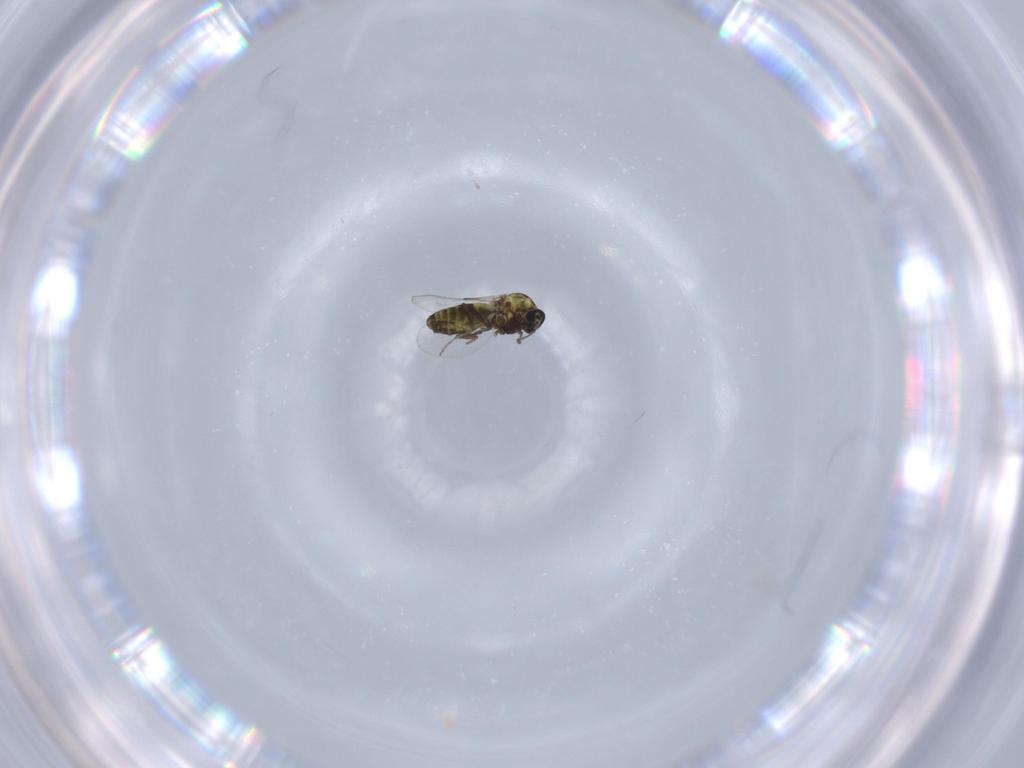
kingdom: Animalia
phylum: Arthropoda
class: Insecta
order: Diptera
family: Ceratopogonidae
